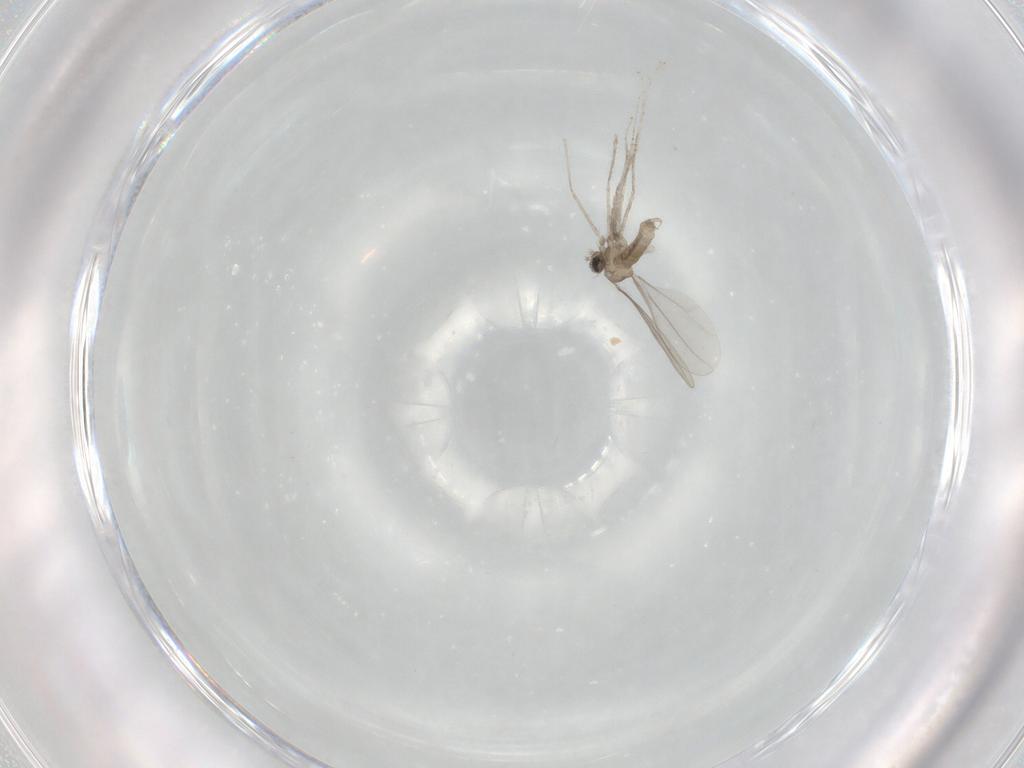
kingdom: Animalia
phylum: Arthropoda
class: Insecta
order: Diptera
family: Cecidomyiidae
